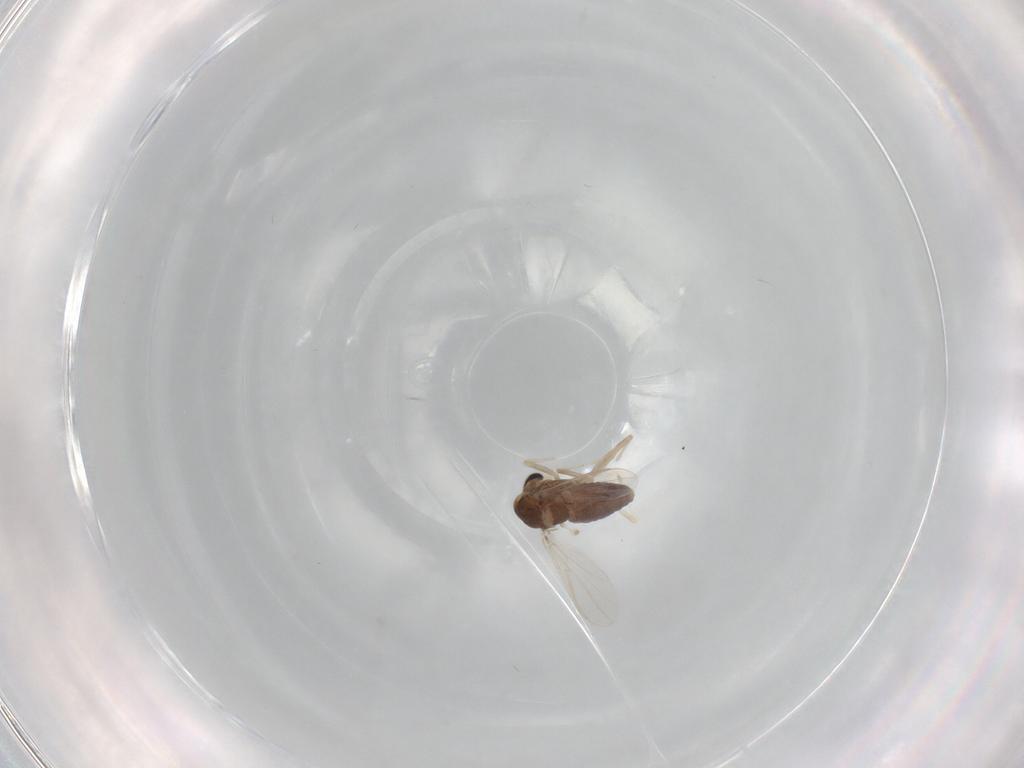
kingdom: Animalia
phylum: Arthropoda
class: Insecta
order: Diptera
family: Limoniidae
